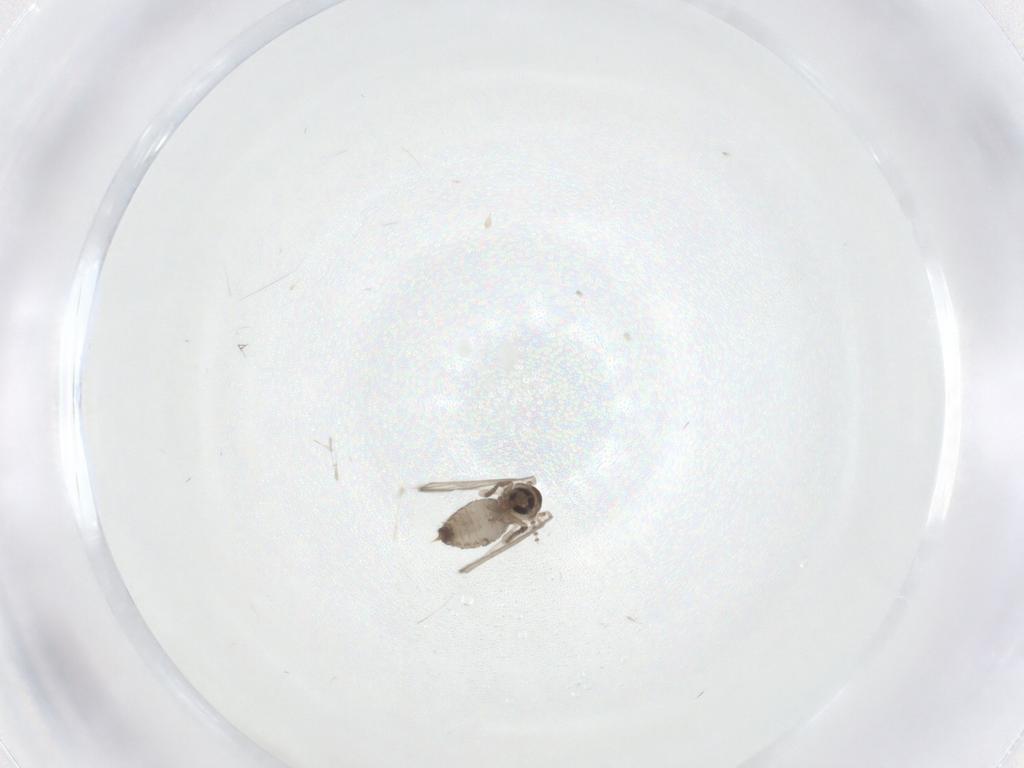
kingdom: Animalia
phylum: Arthropoda
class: Insecta
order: Diptera
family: Psychodidae
